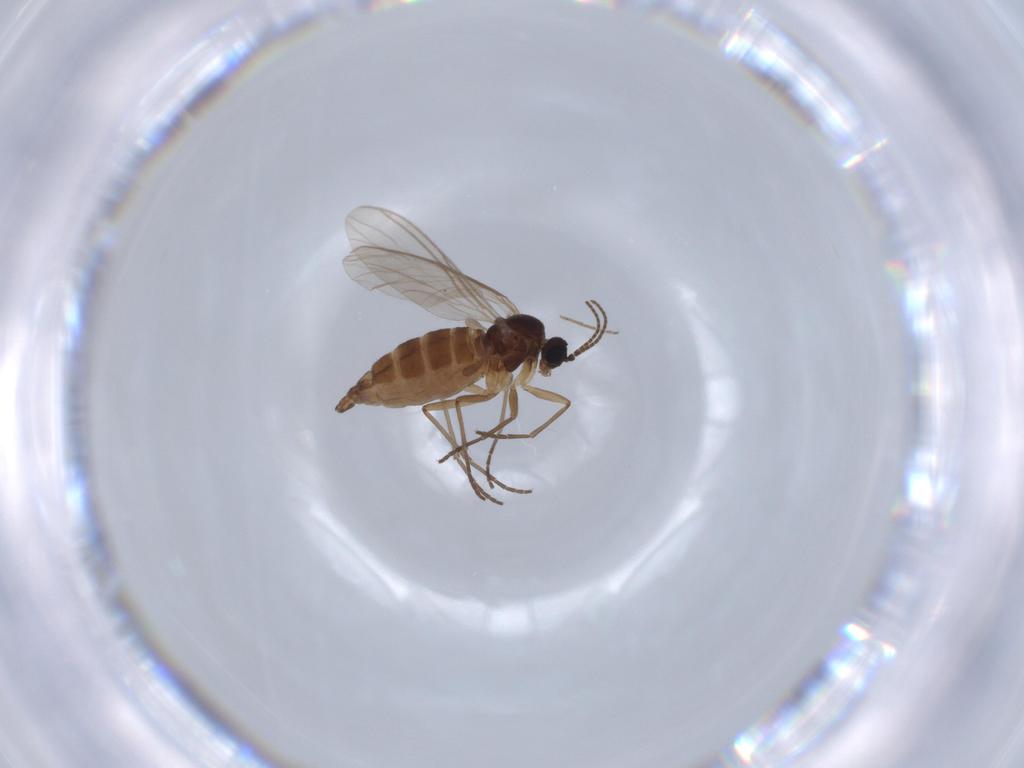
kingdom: Animalia
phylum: Arthropoda
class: Insecta
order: Diptera
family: Sciaridae
